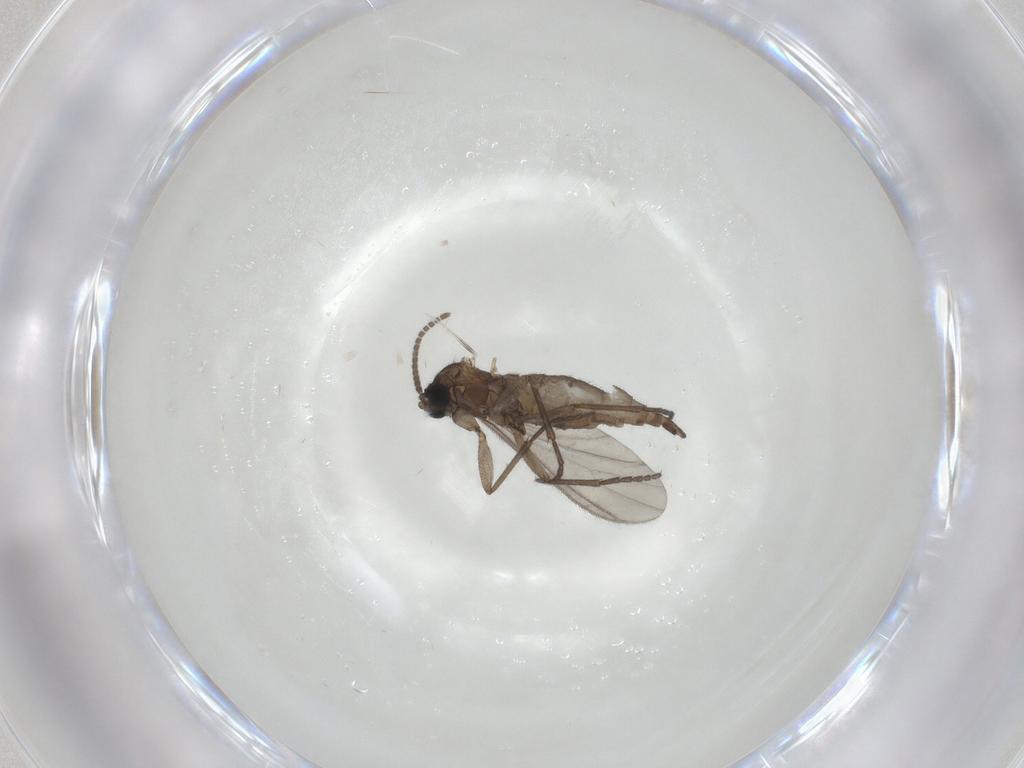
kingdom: Animalia
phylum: Arthropoda
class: Insecta
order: Diptera
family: Sciaridae
